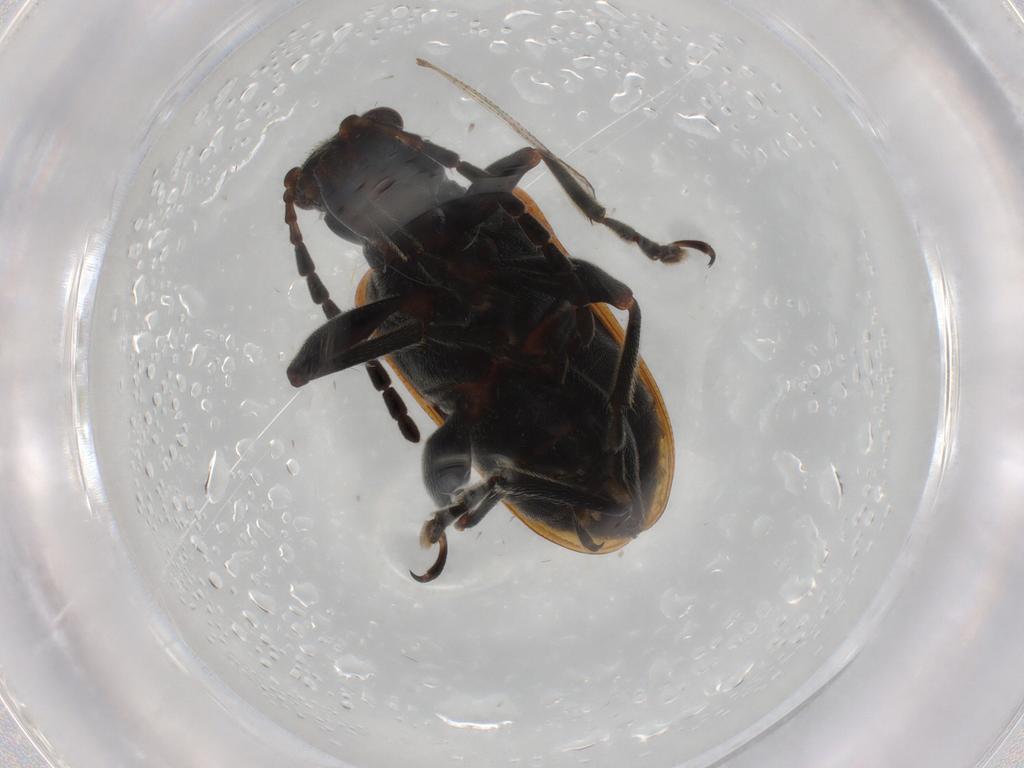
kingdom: Animalia
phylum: Arthropoda
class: Insecta
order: Coleoptera
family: Chrysomelidae
